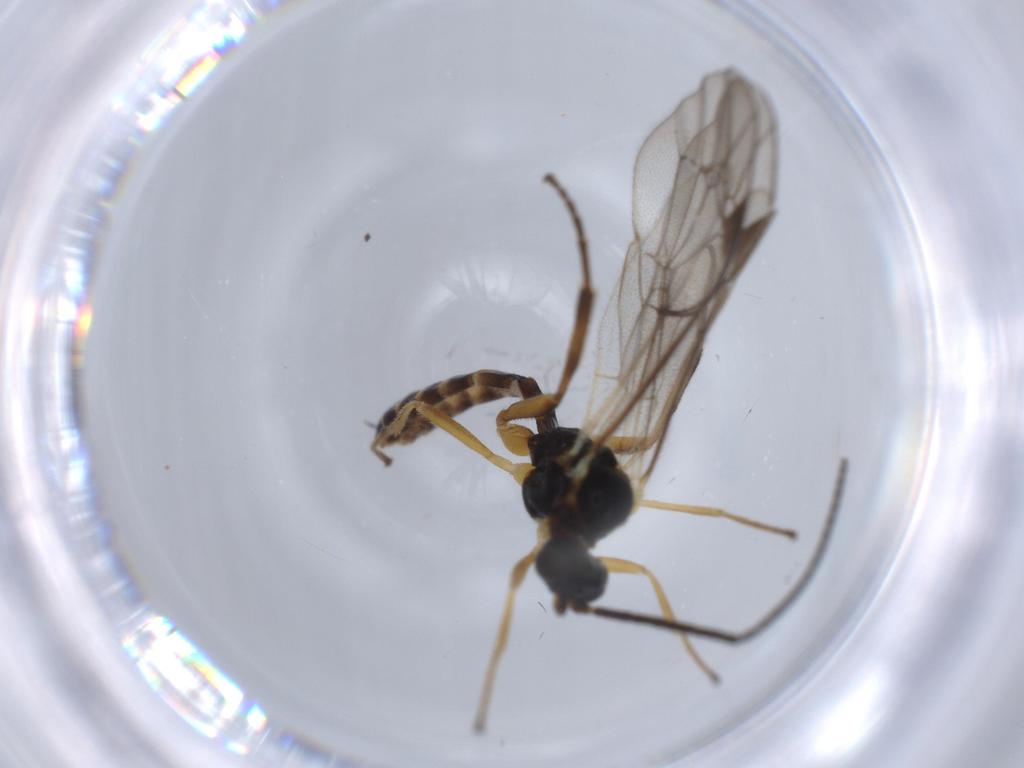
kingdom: Animalia
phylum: Arthropoda
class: Insecta
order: Hymenoptera
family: Ichneumonidae
